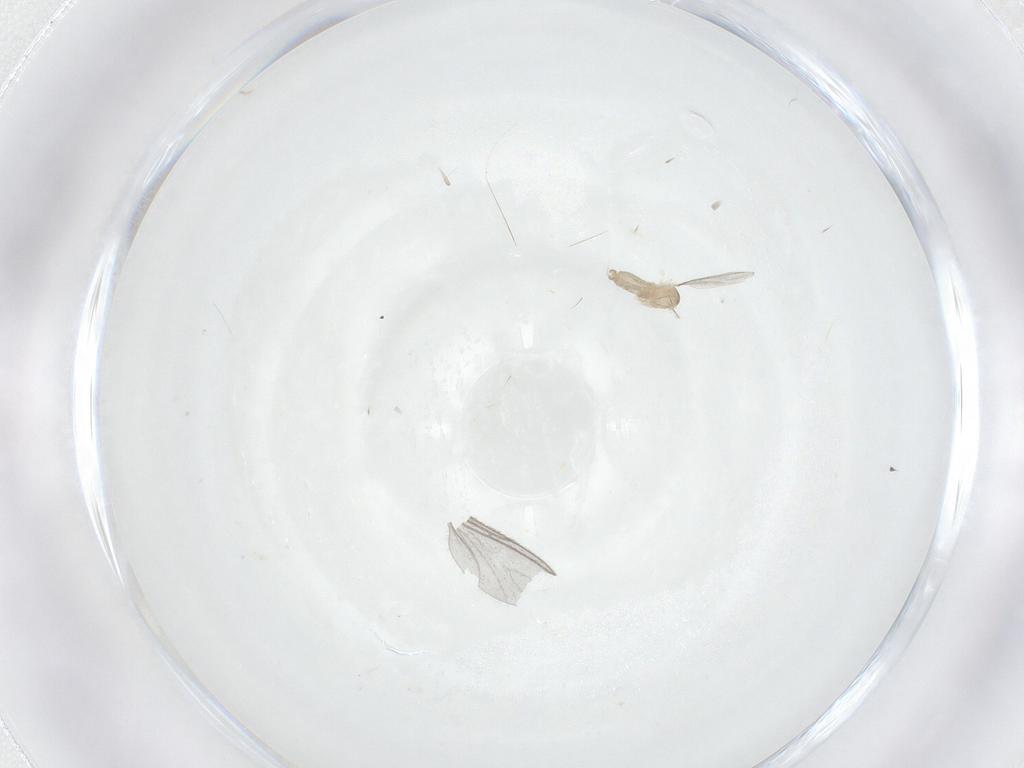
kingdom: Animalia
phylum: Arthropoda
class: Insecta
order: Diptera
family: Cecidomyiidae
